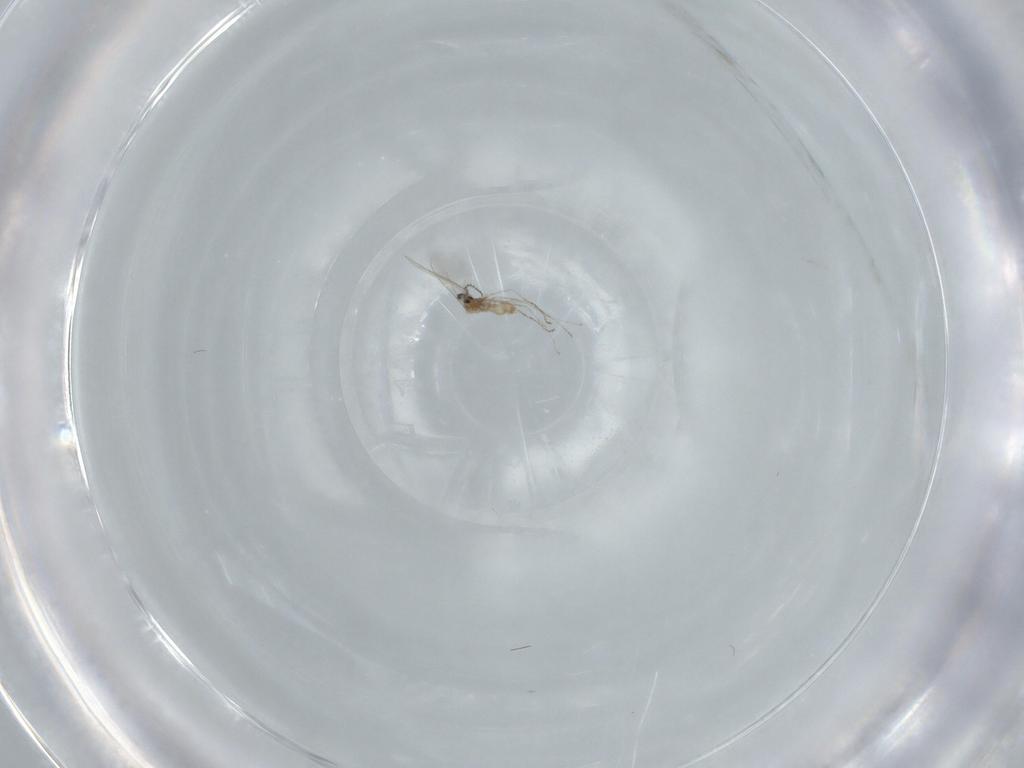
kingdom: Animalia
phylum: Arthropoda
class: Insecta
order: Diptera
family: Cecidomyiidae
